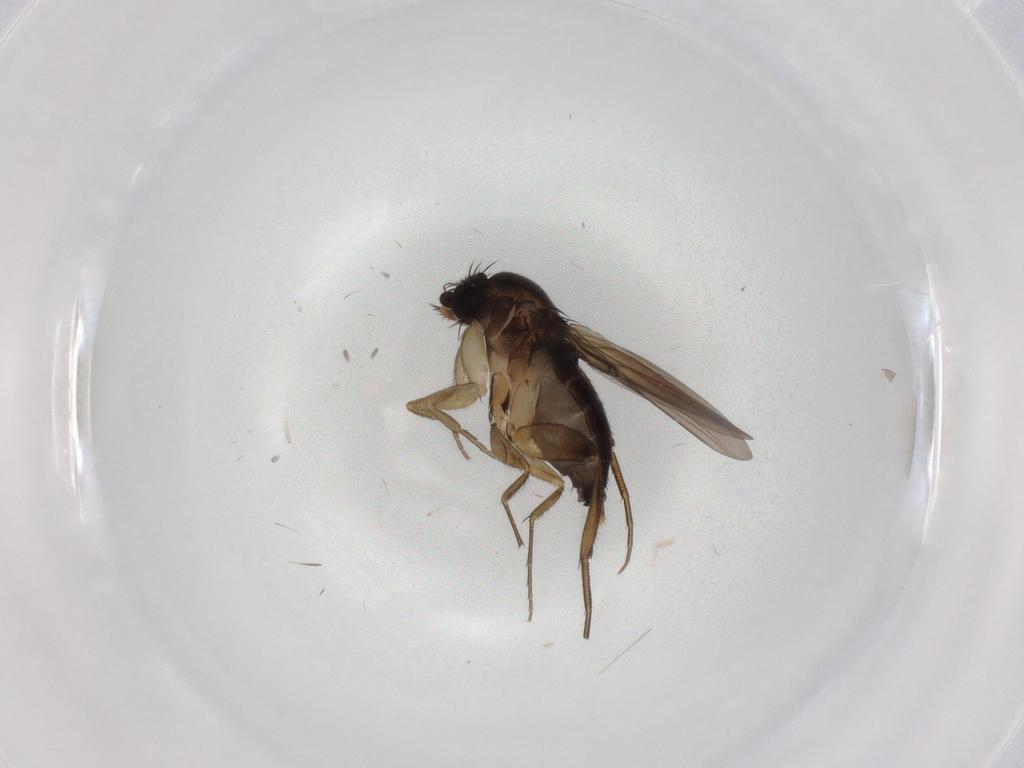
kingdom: Animalia
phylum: Arthropoda
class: Insecta
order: Diptera
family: Phoridae
